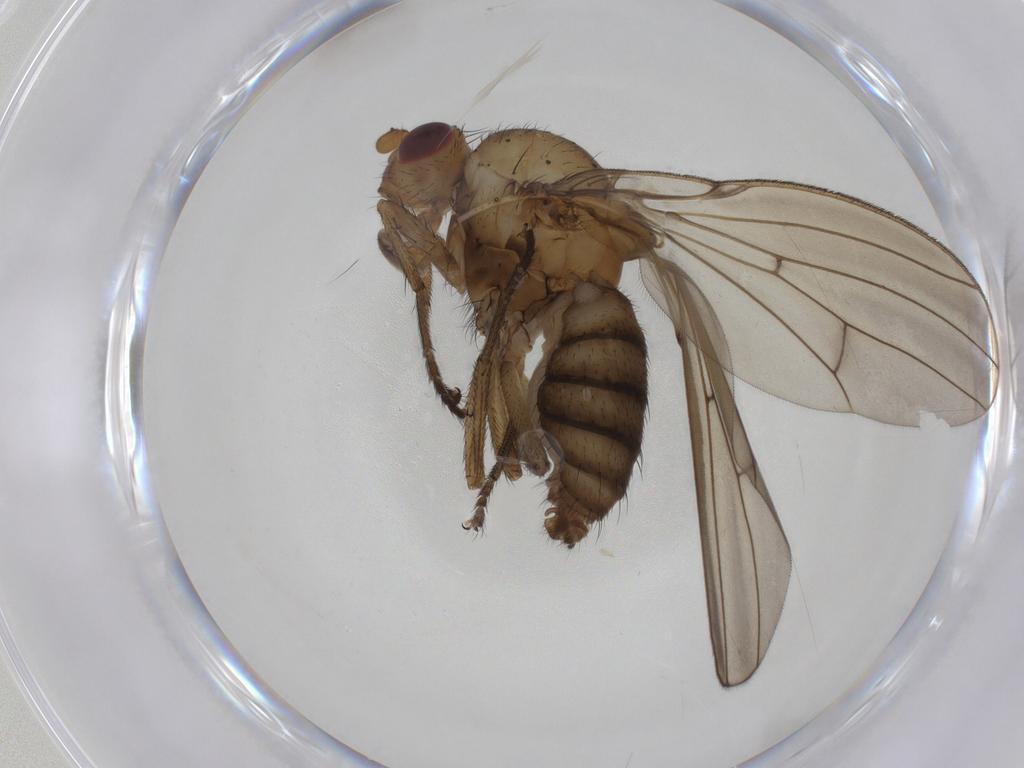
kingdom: Animalia
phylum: Arthropoda
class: Insecta
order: Diptera
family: Lauxaniidae
